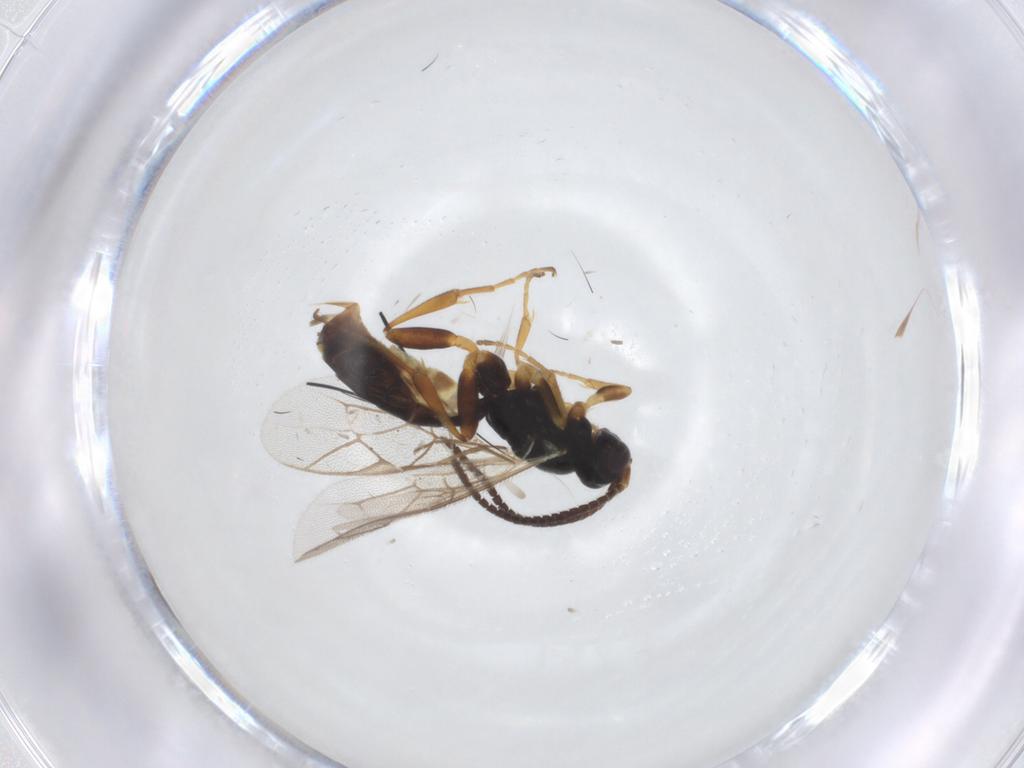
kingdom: Animalia
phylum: Arthropoda
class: Insecta
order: Hymenoptera
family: Ichneumonidae
